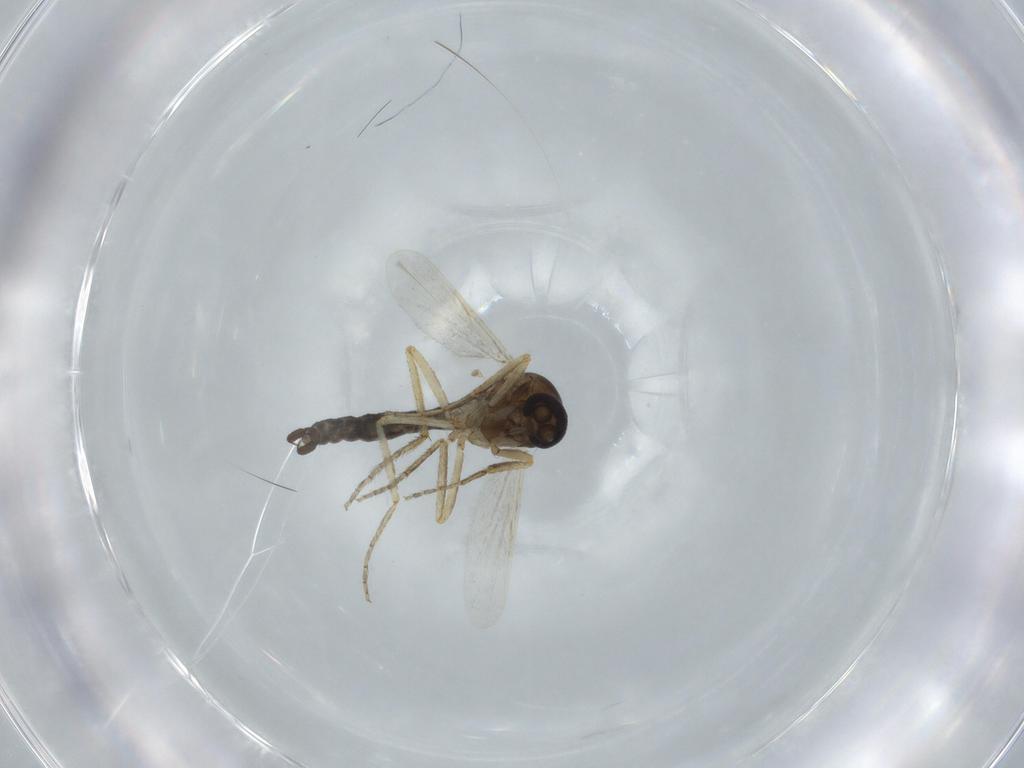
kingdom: Animalia
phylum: Arthropoda
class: Insecta
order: Diptera
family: Ceratopogonidae
